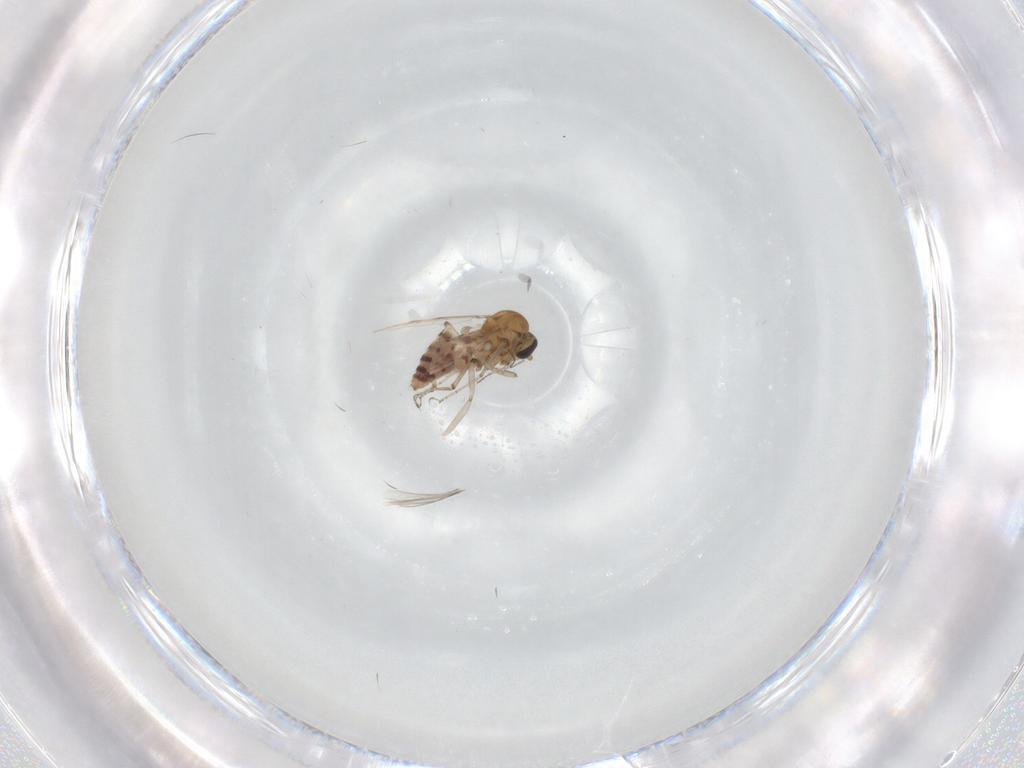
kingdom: Animalia
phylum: Arthropoda
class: Insecta
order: Diptera
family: Ceratopogonidae
